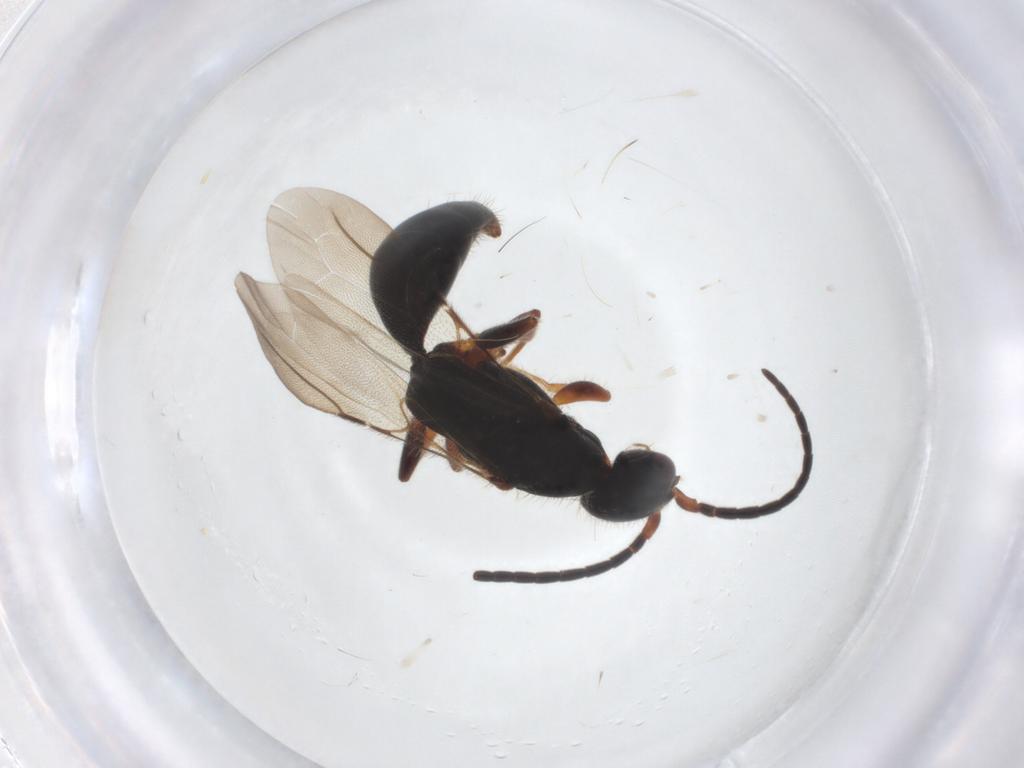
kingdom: Animalia
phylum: Arthropoda
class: Insecta
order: Hymenoptera
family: Bethylidae
